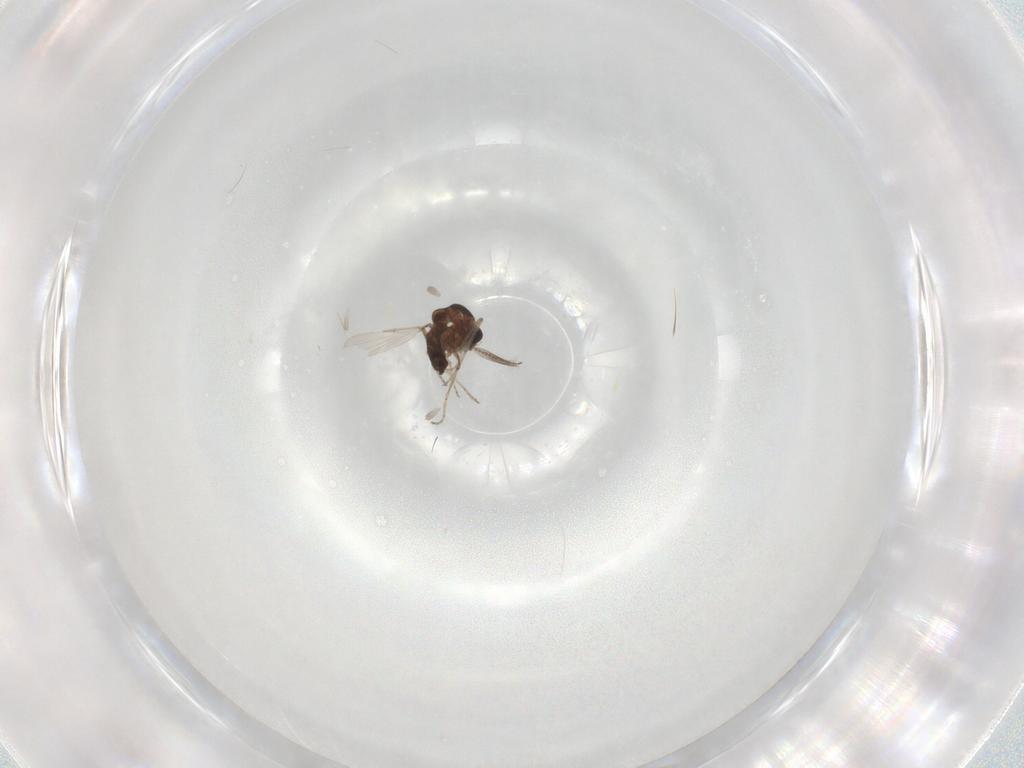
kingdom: Animalia
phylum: Arthropoda
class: Insecta
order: Diptera
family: Ceratopogonidae
